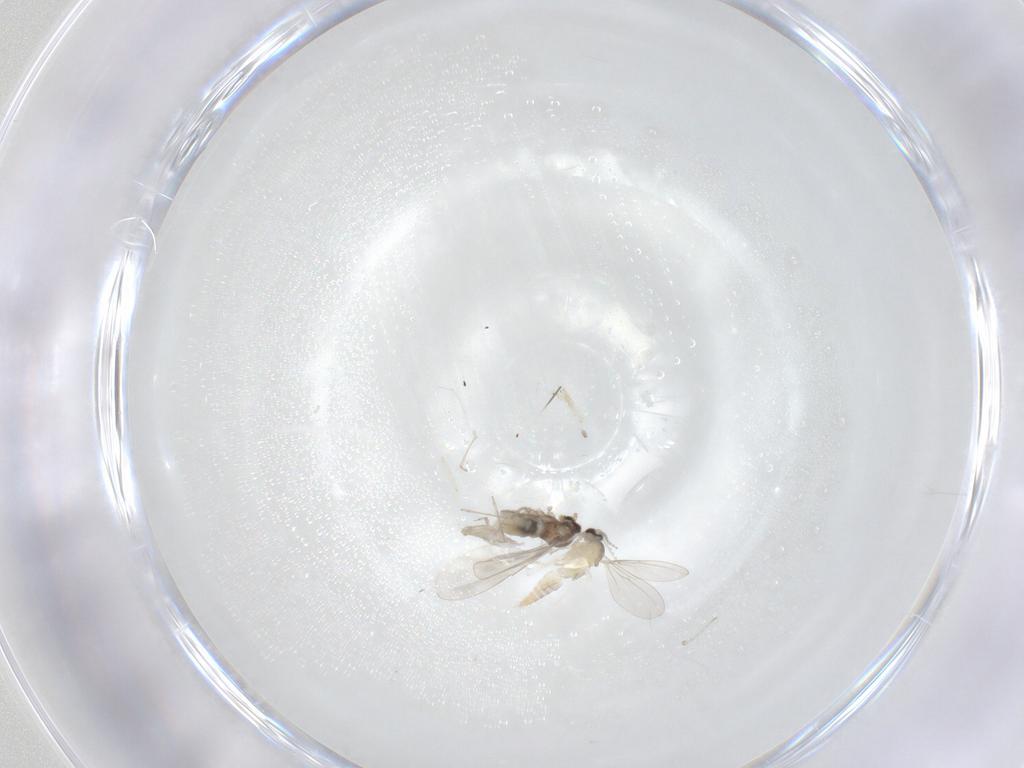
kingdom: Animalia
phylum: Arthropoda
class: Insecta
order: Diptera
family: Cecidomyiidae
